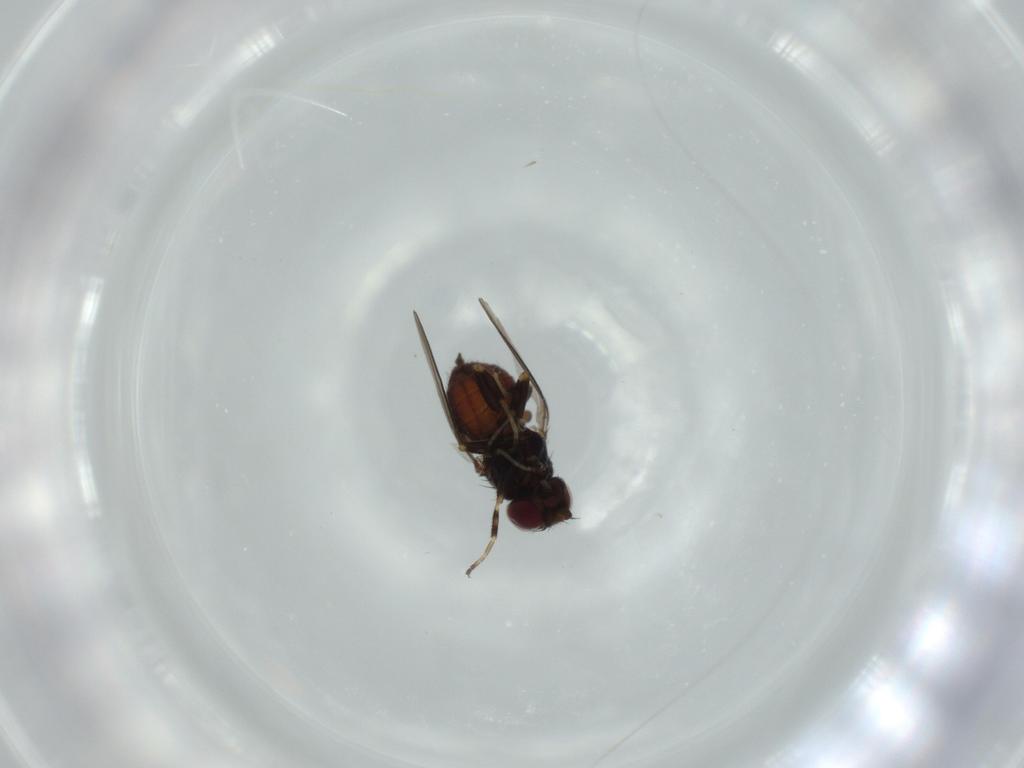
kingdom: Animalia
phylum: Arthropoda
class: Insecta
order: Diptera
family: Chloropidae
